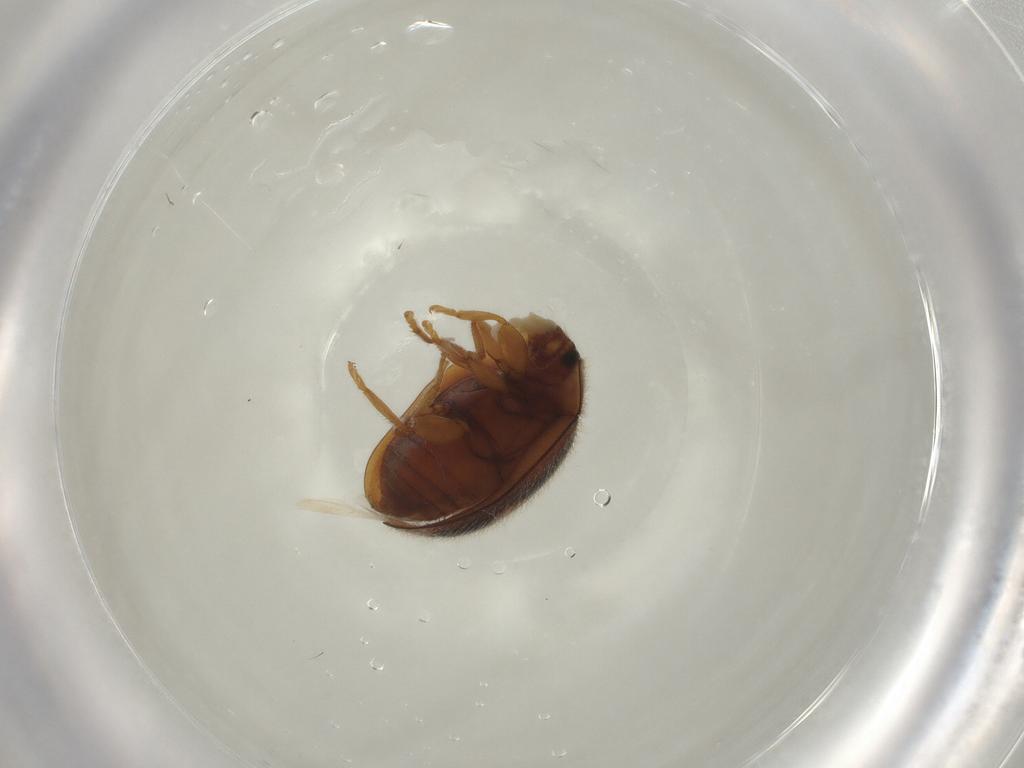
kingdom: Animalia
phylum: Arthropoda
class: Insecta
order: Coleoptera
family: Coccinellidae
